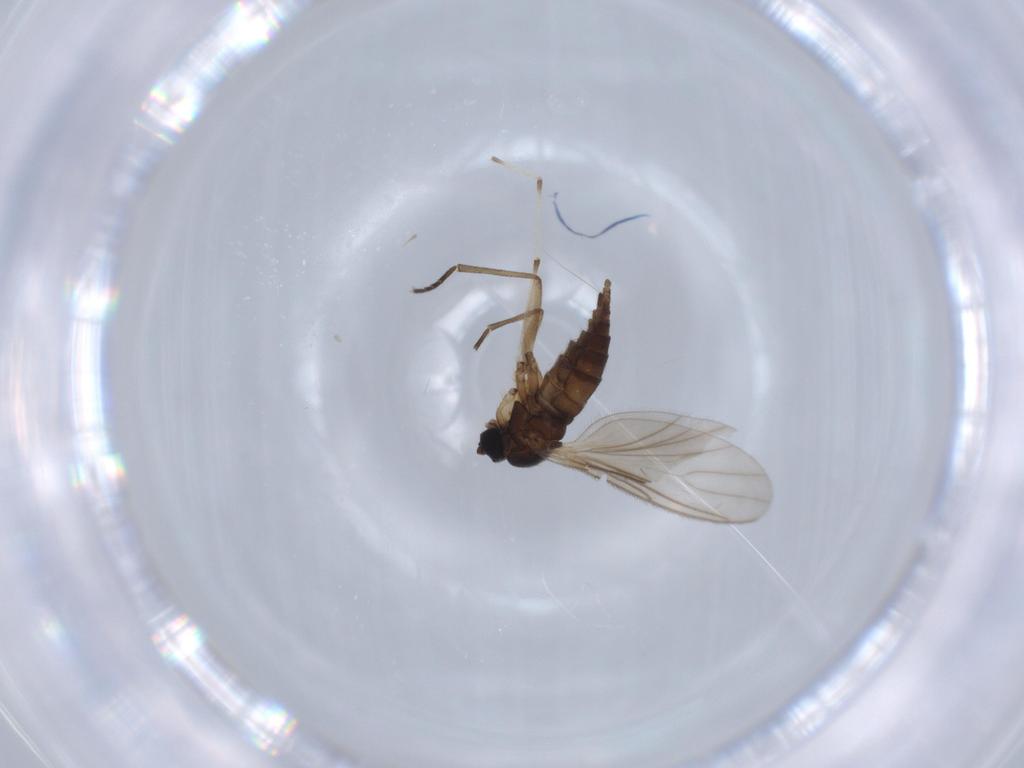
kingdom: Animalia
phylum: Arthropoda
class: Insecta
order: Diptera
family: Sciaridae
